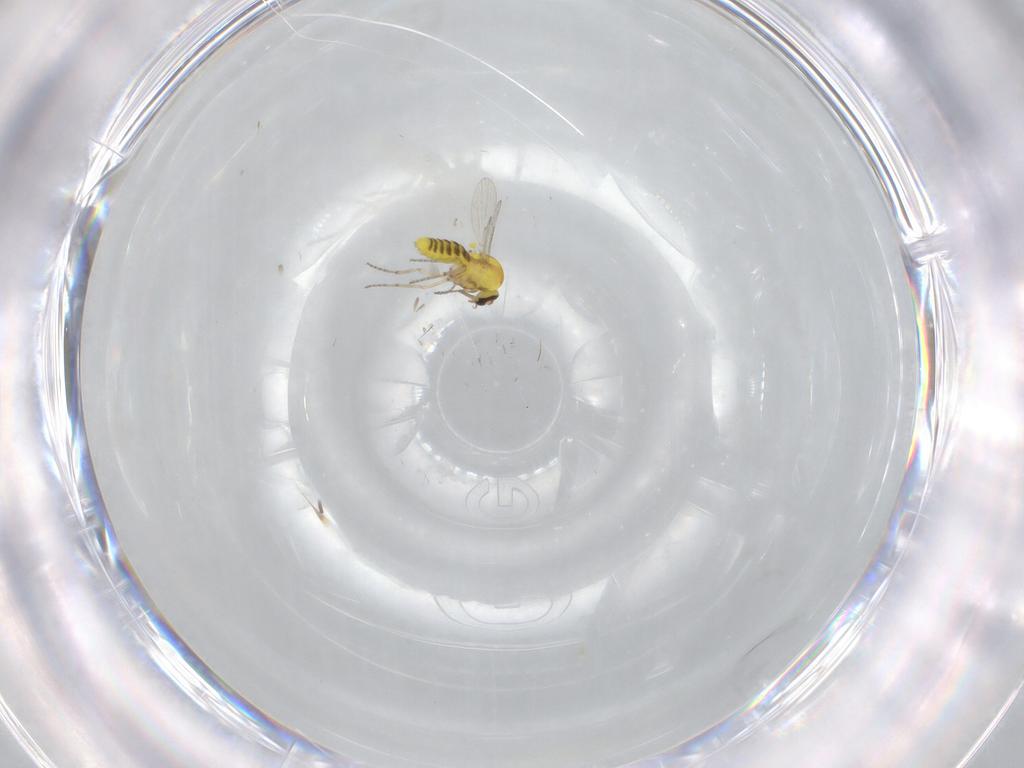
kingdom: Animalia
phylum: Arthropoda
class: Insecta
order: Diptera
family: Ceratopogonidae
